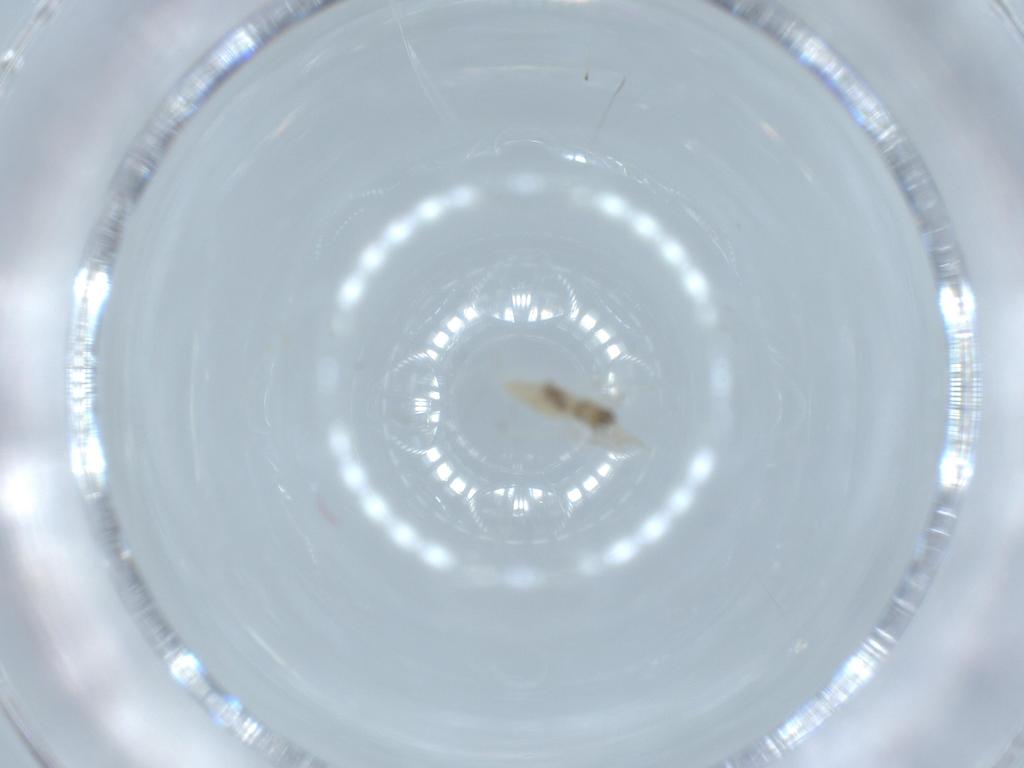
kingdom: Animalia
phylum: Arthropoda
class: Insecta
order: Diptera
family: Cecidomyiidae
